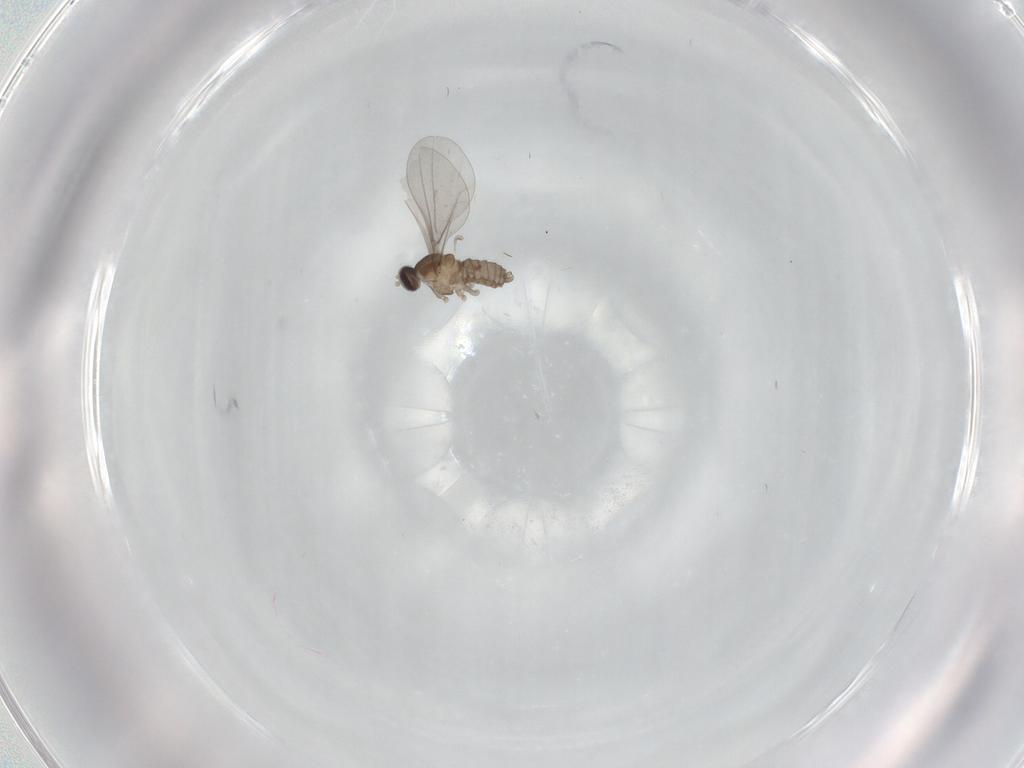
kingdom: Animalia
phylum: Arthropoda
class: Insecta
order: Diptera
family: Cecidomyiidae
